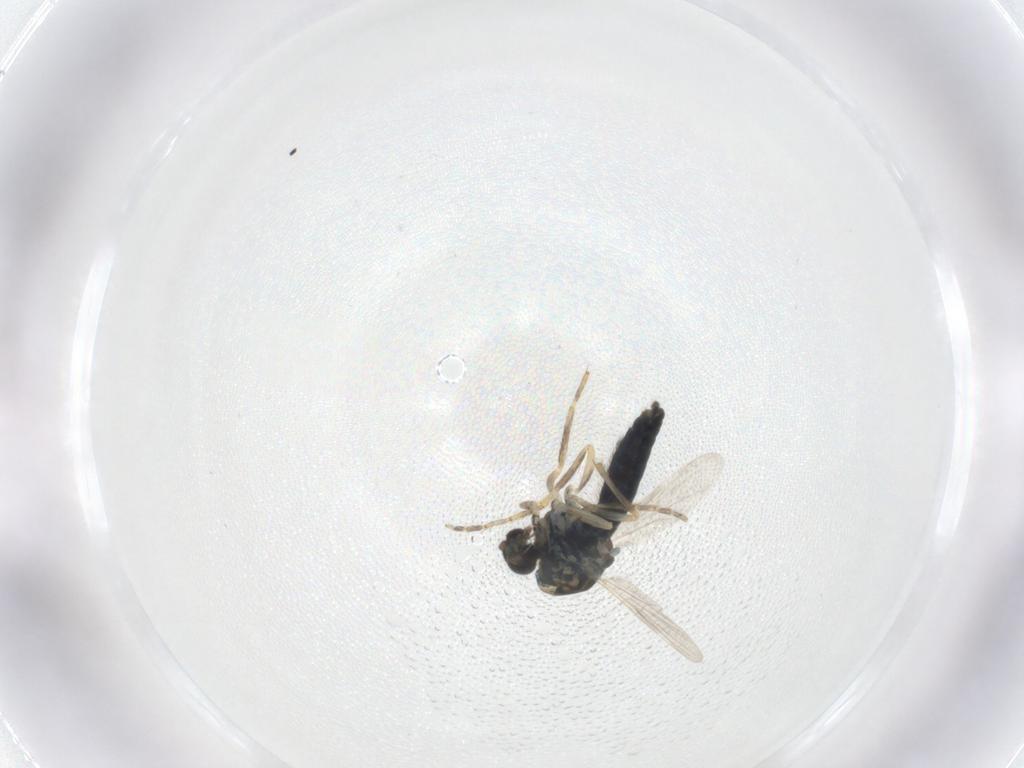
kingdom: Animalia
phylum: Arthropoda
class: Insecta
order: Diptera
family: Ceratopogonidae
